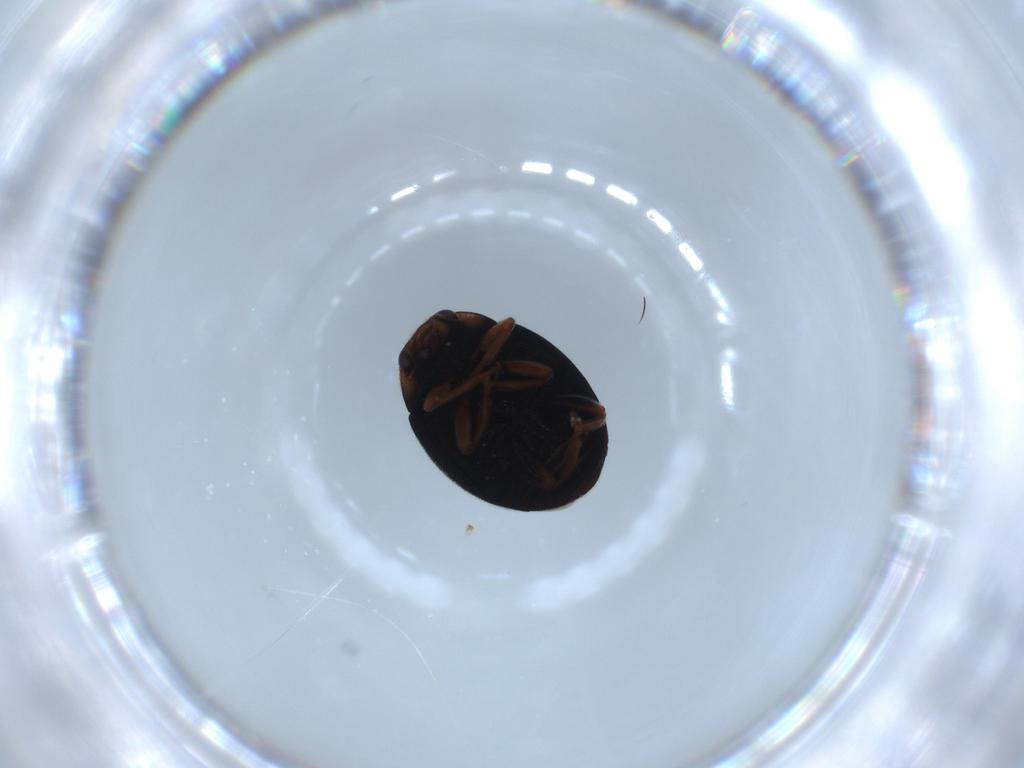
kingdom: Animalia
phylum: Arthropoda
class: Insecta
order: Coleoptera
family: Coccinellidae
